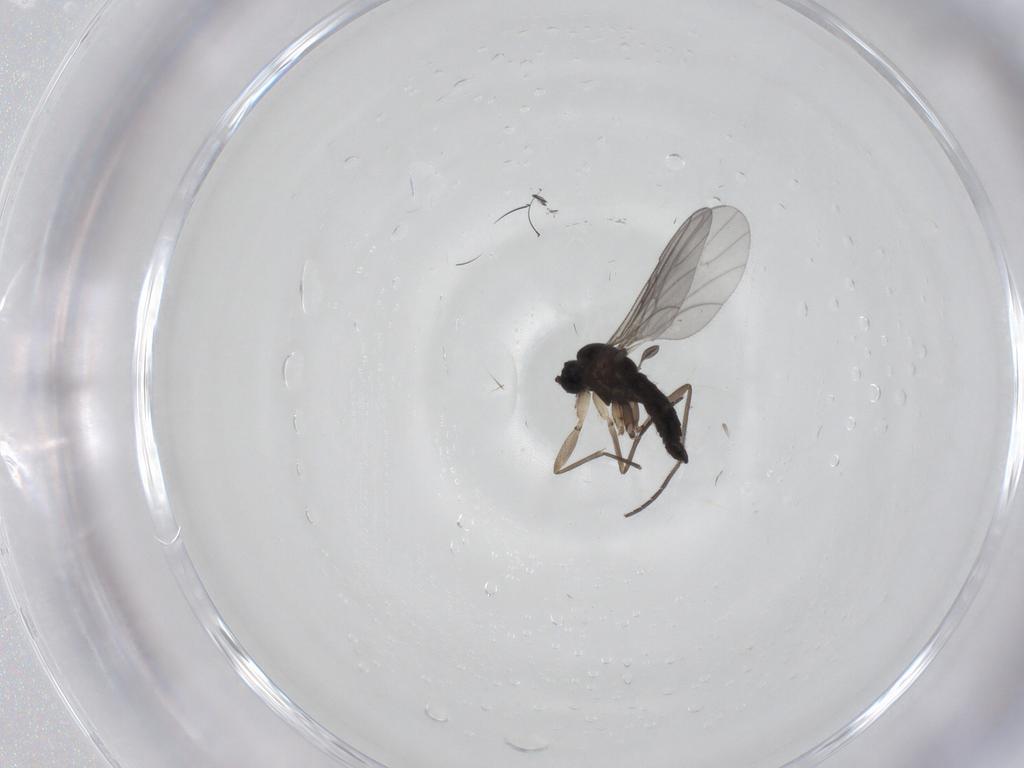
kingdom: Animalia
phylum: Arthropoda
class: Insecta
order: Diptera
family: Sciaridae
